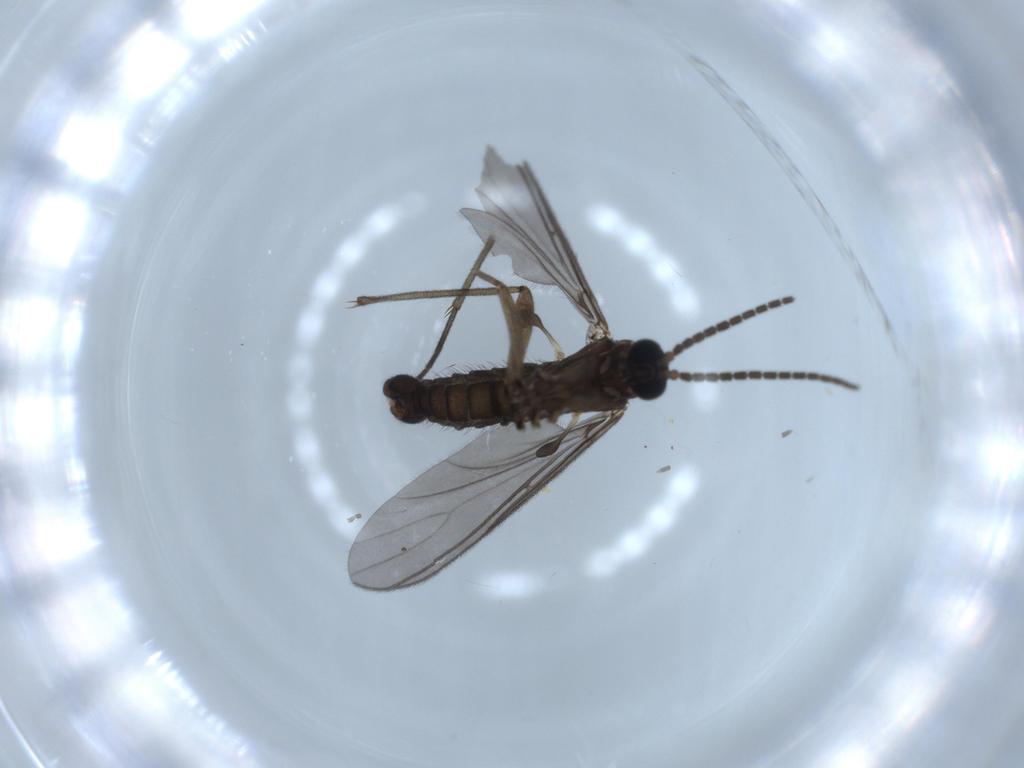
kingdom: Animalia
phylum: Arthropoda
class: Insecta
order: Diptera
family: Sciaridae
